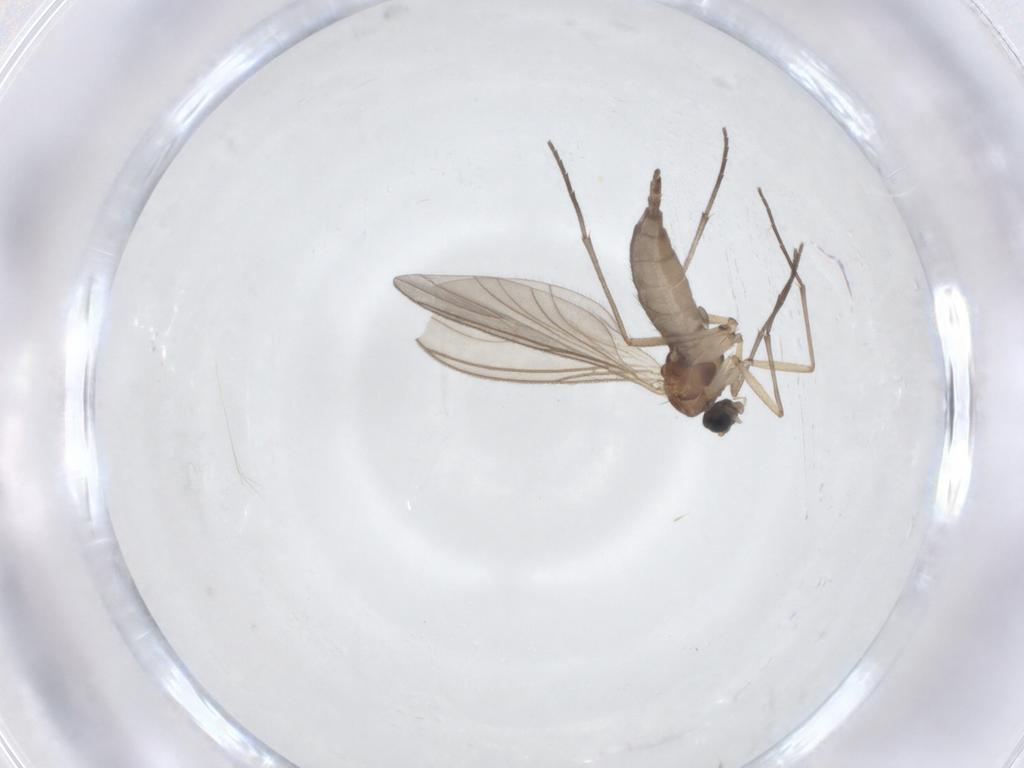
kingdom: Animalia
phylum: Arthropoda
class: Insecta
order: Diptera
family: Sciaridae
